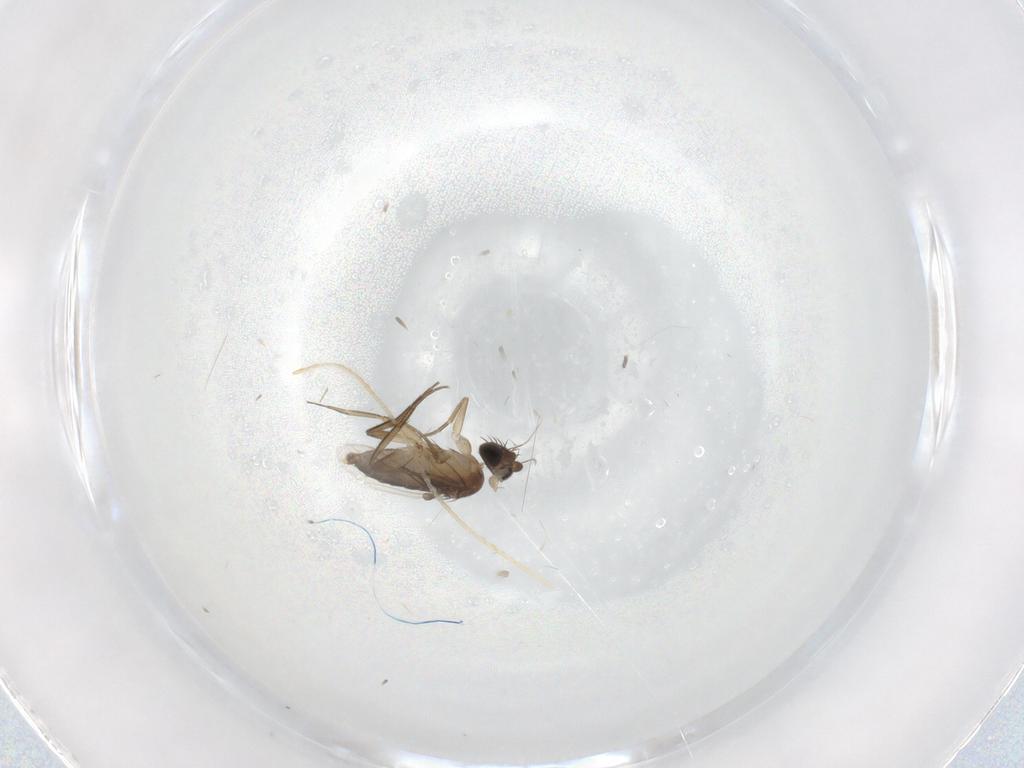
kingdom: Animalia
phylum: Arthropoda
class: Insecta
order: Diptera
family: Phoridae
